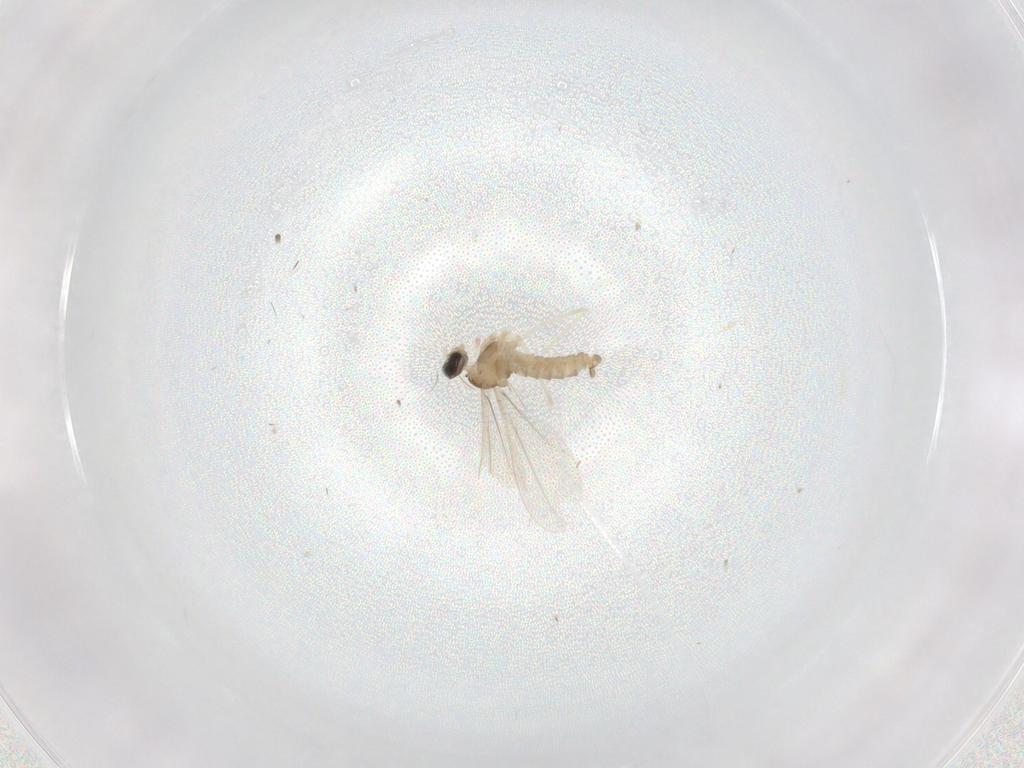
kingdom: Animalia
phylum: Arthropoda
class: Insecta
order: Diptera
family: Cecidomyiidae
